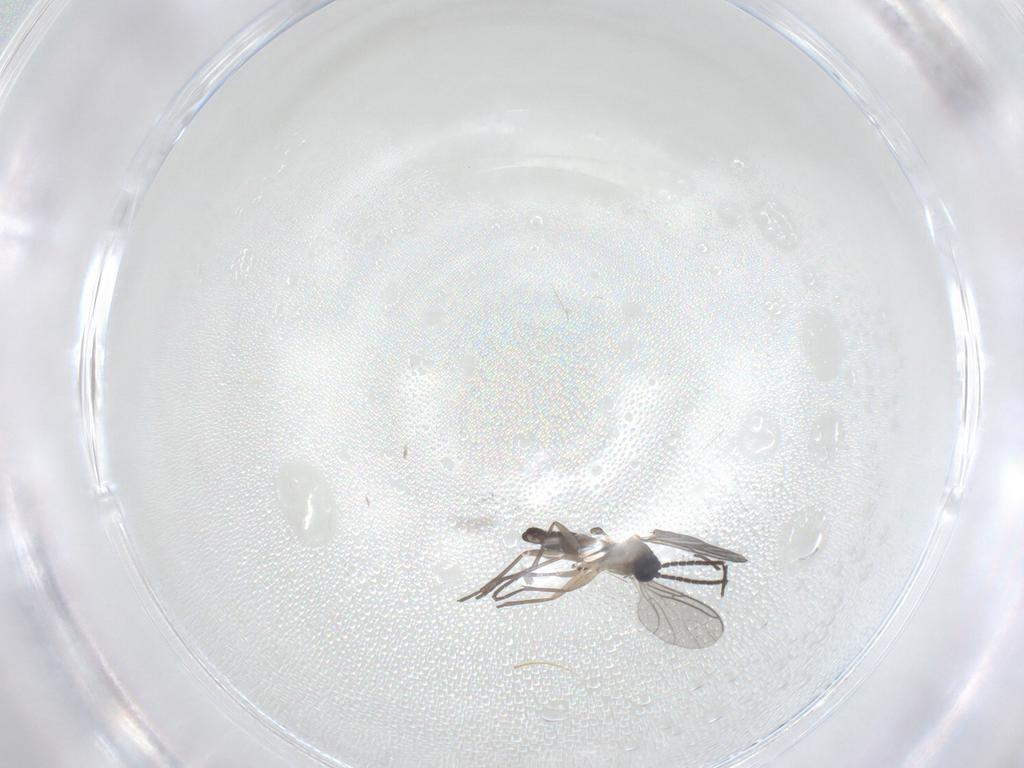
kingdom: Animalia
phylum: Arthropoda
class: Insecta
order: Diptera
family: Sciaridae
